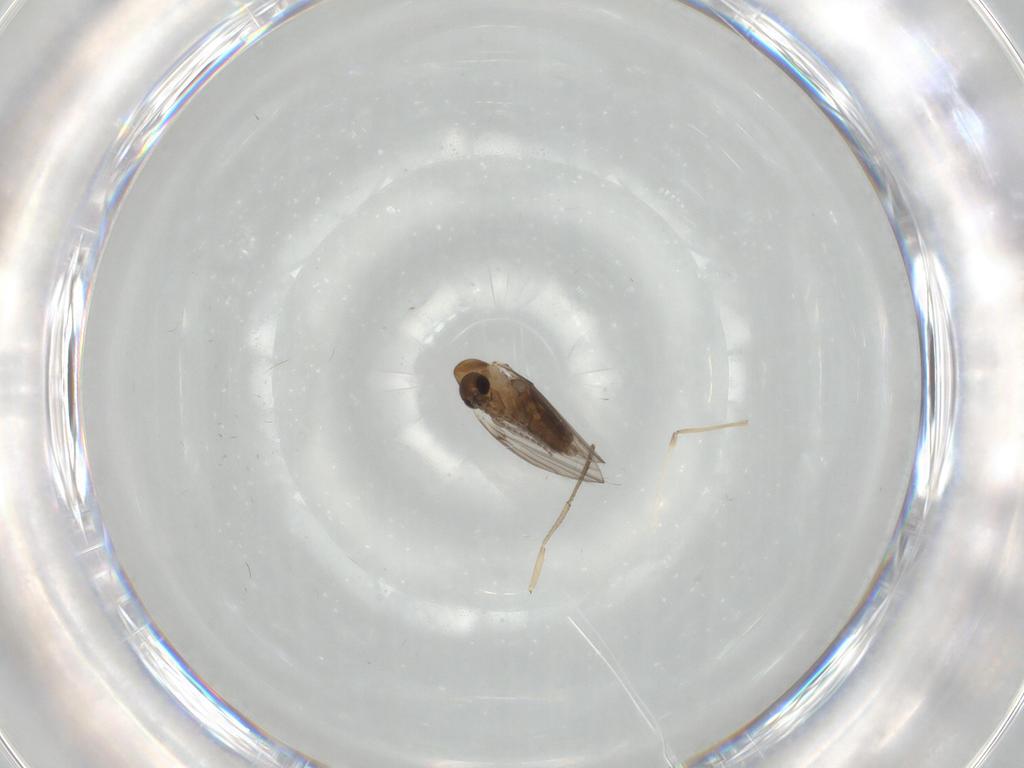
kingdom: Animalia
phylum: Arthropoda
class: Insecta
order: Diptera
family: Psychodidae
